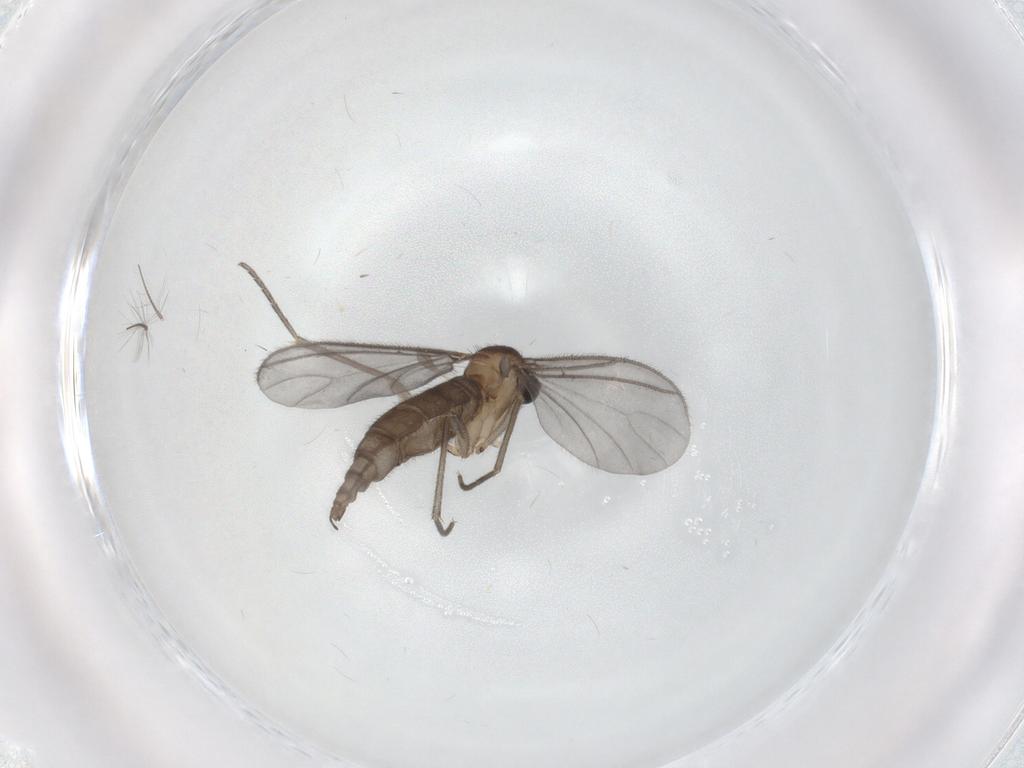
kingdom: Animalia
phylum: Arthropoda
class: Insecta
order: Diptera
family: Sciaridae
